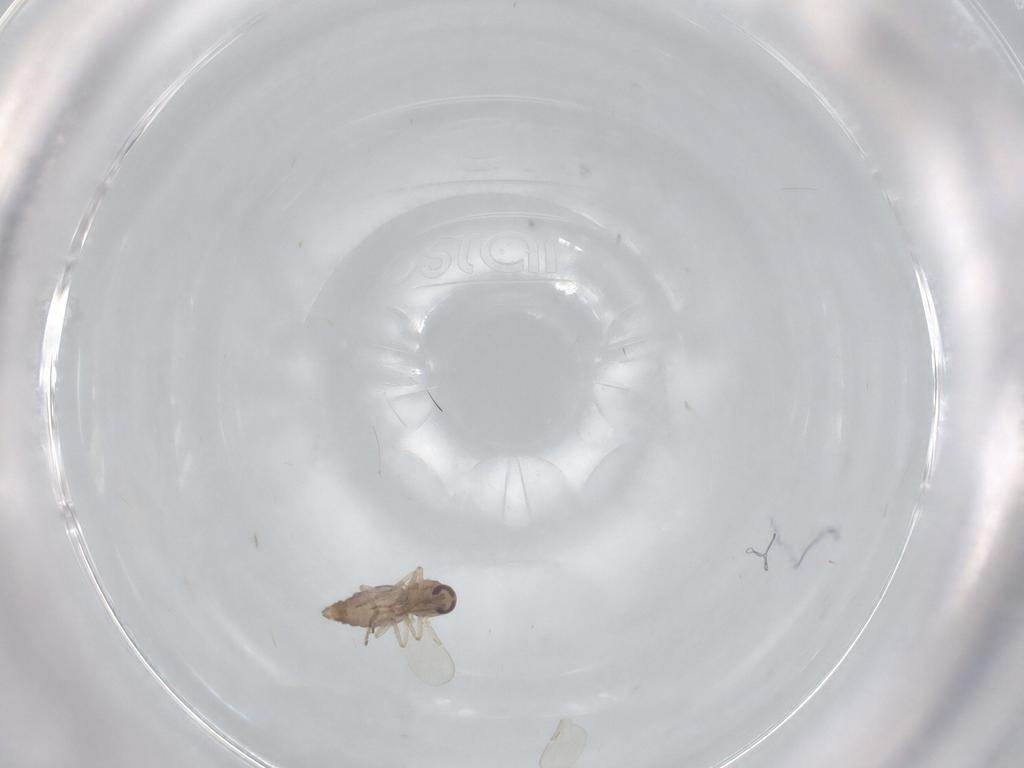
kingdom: Animalia
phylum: Arthropoda
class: Insecta
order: Diptera
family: Ceratopogonidae
